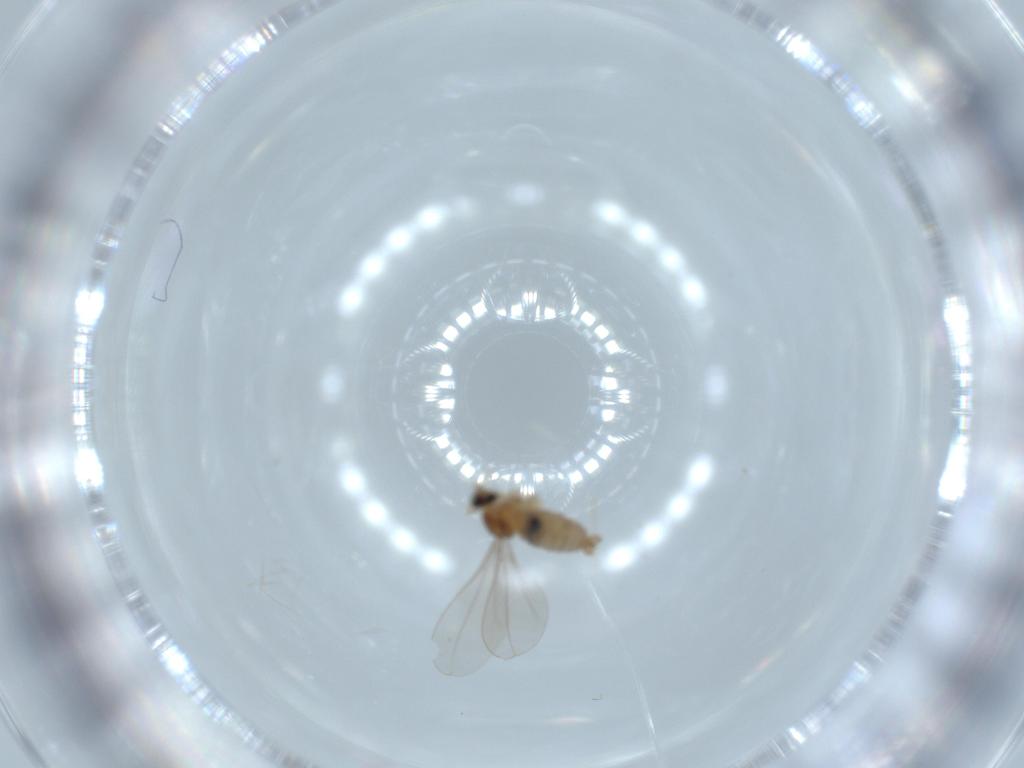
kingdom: Animalia
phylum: Arthropoda
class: Insecta
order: Diptera
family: Cecidomyiidae
